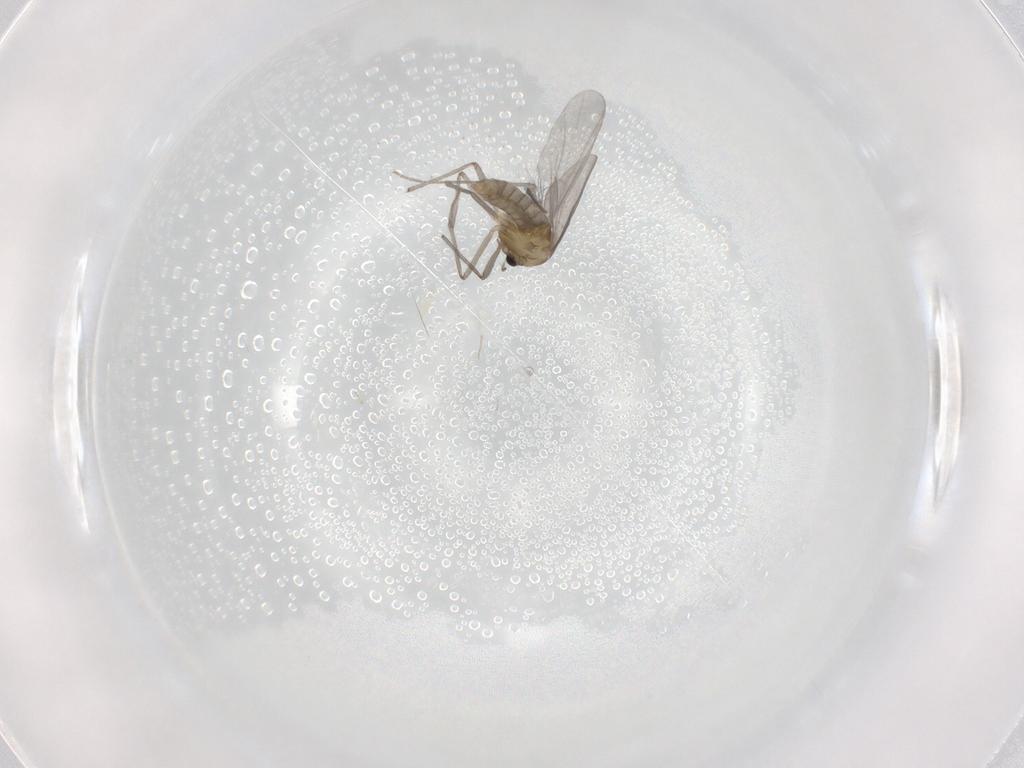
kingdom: Animalia
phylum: Arthropoda
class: Insecta
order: Diptera
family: Chironomidae
